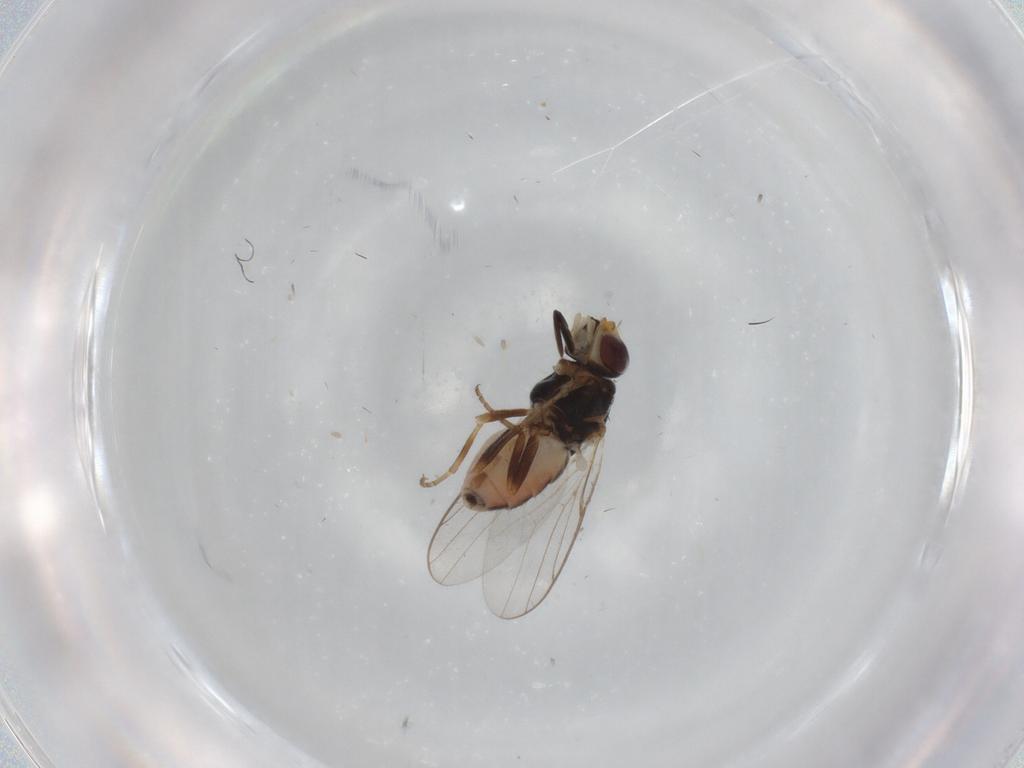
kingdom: Animalia
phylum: Arthropoda
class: Insecta
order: Diptera
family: Chloropidae
